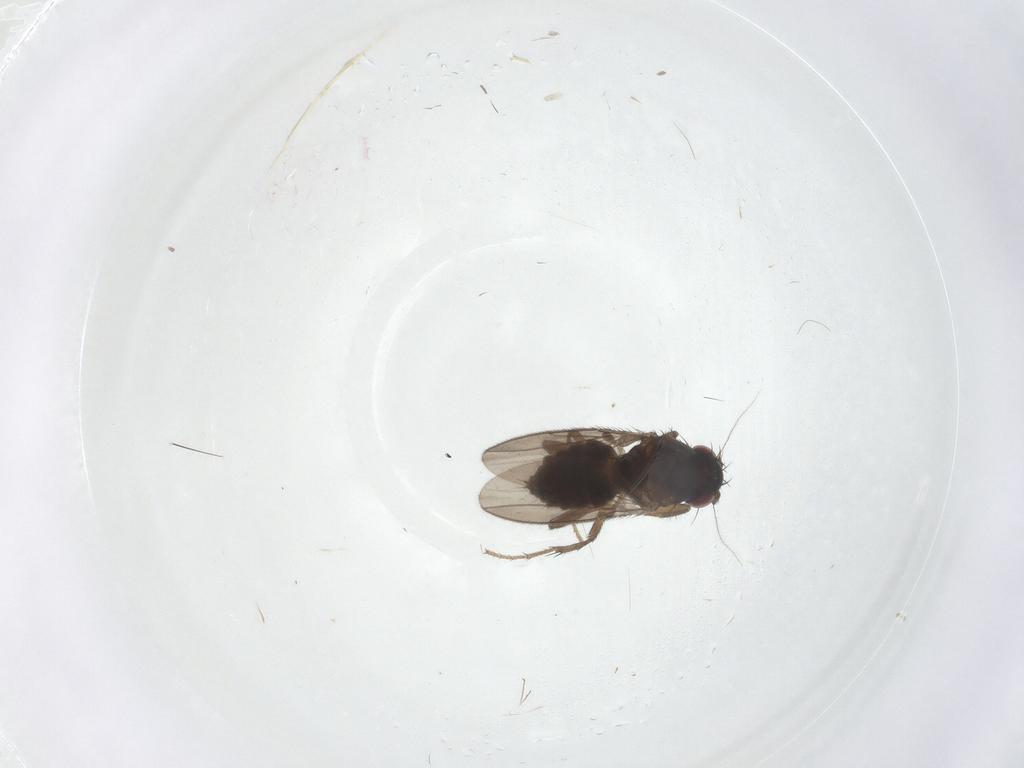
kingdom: Animalia
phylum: Arthropoda
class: Insecta
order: Diptera
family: Cecidomyiidae
